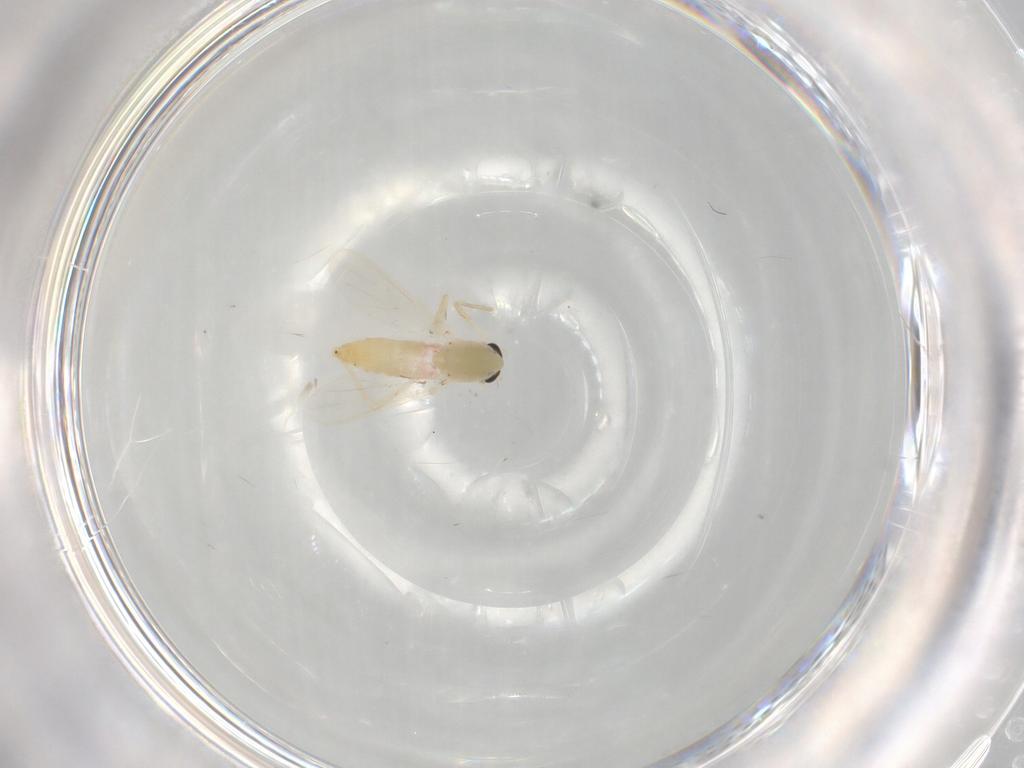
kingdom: Animalia
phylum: Arthropoda
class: Insecta
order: Diptera
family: Chironomidae
